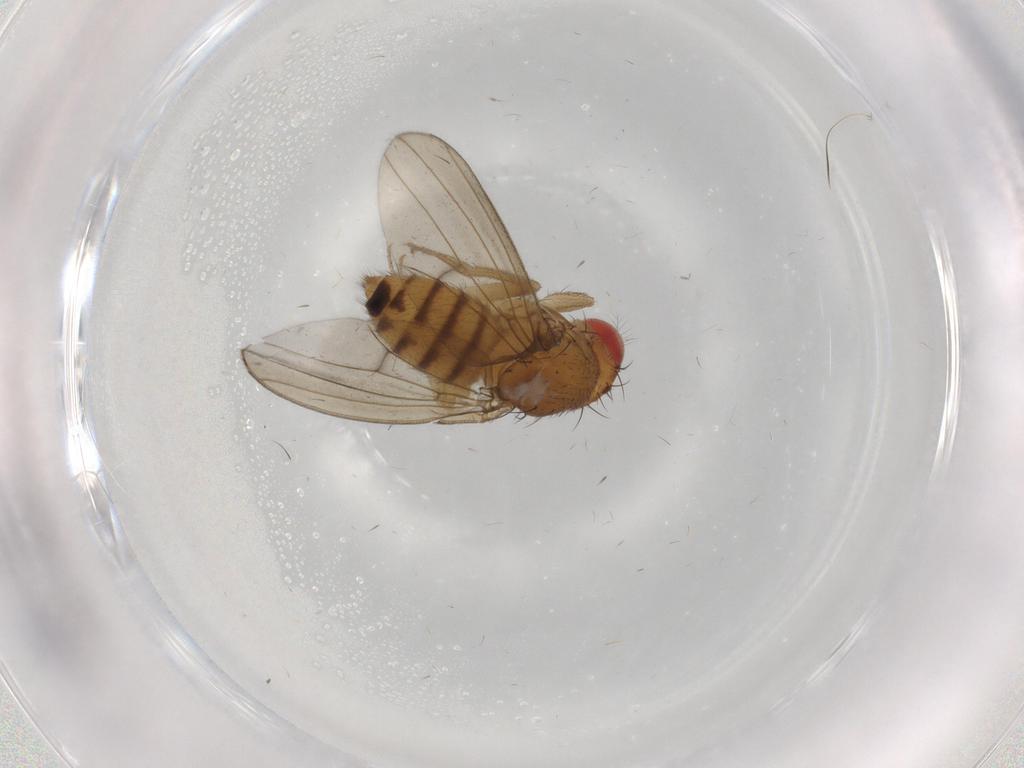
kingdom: Animalia
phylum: Arthropoda
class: Insecta
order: Diptera
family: Drosophilidae
